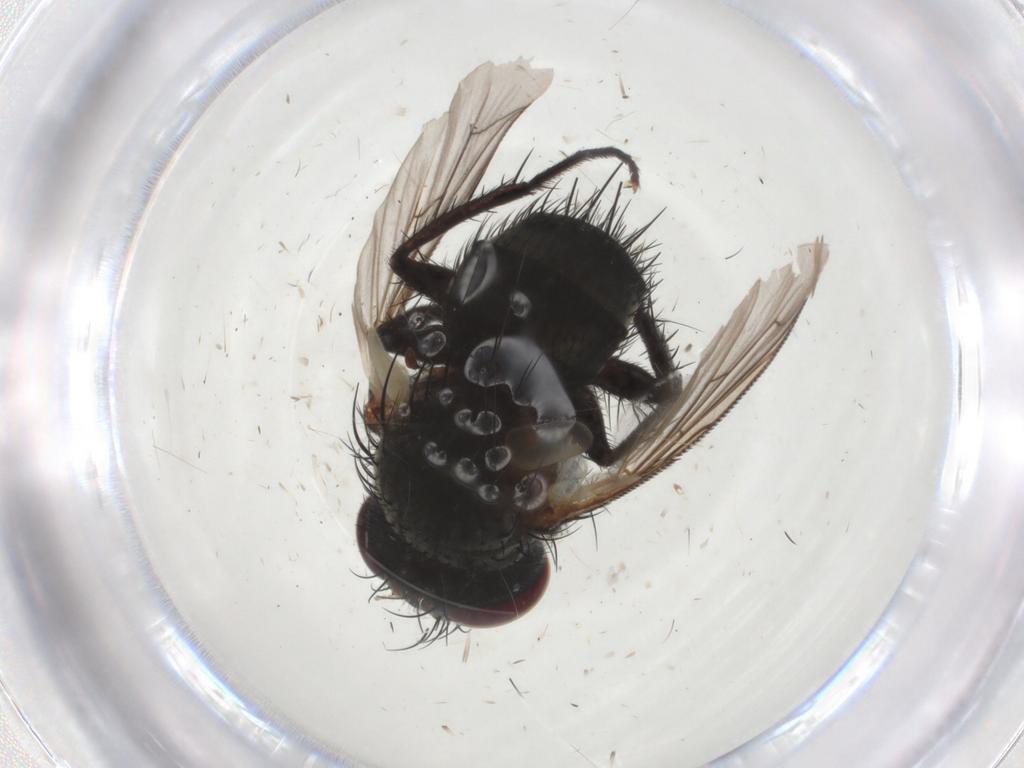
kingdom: Animalia
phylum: Arthropoda
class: Insecta
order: Diptera
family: Tachinidae
